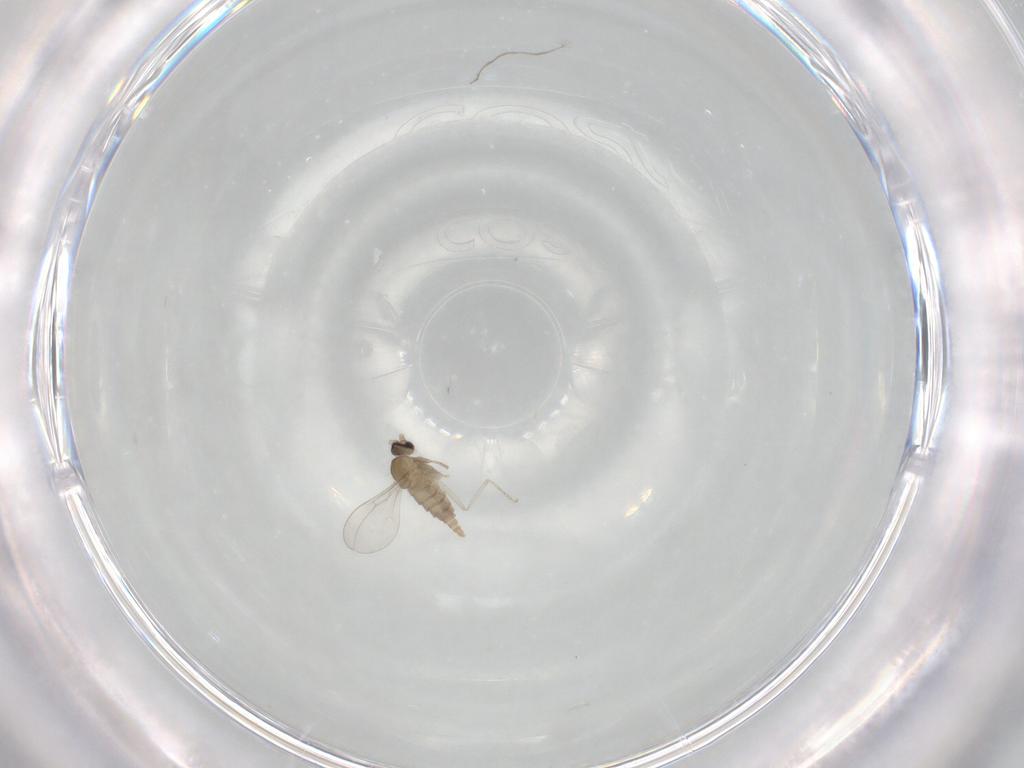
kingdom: Animalia
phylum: Arthropoda
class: Insecta
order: Diptera
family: Cecidomyiidae
